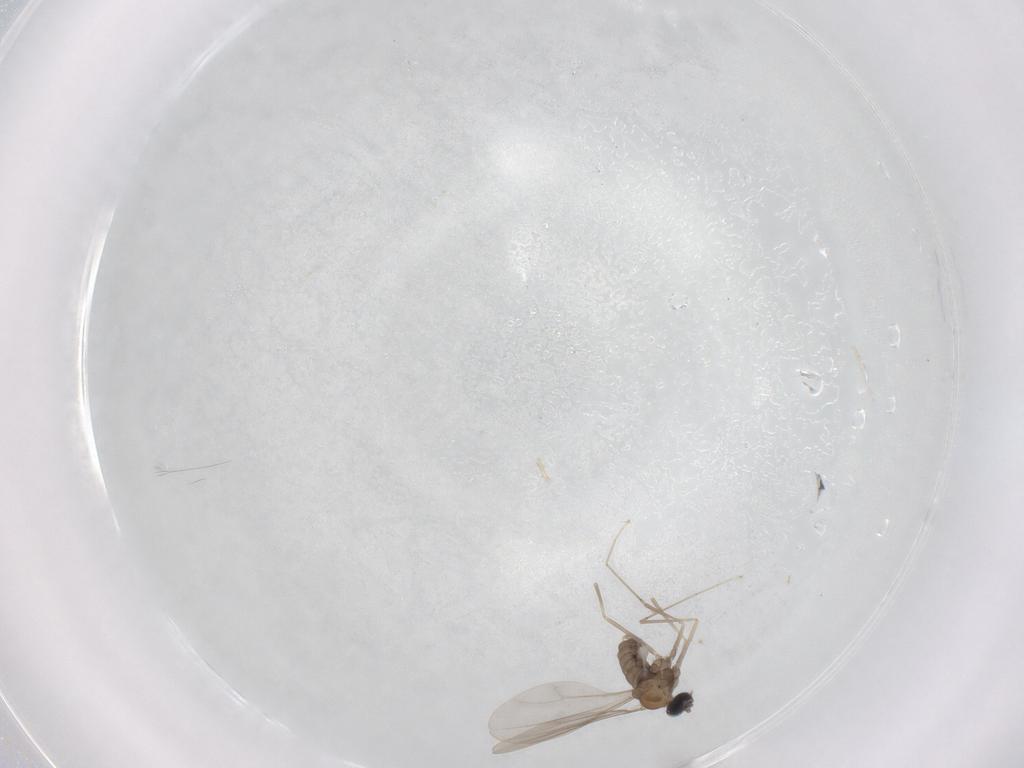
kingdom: Animalia
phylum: Arthropoda
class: Insecta
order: Diptera
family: Cecidomyiidae
